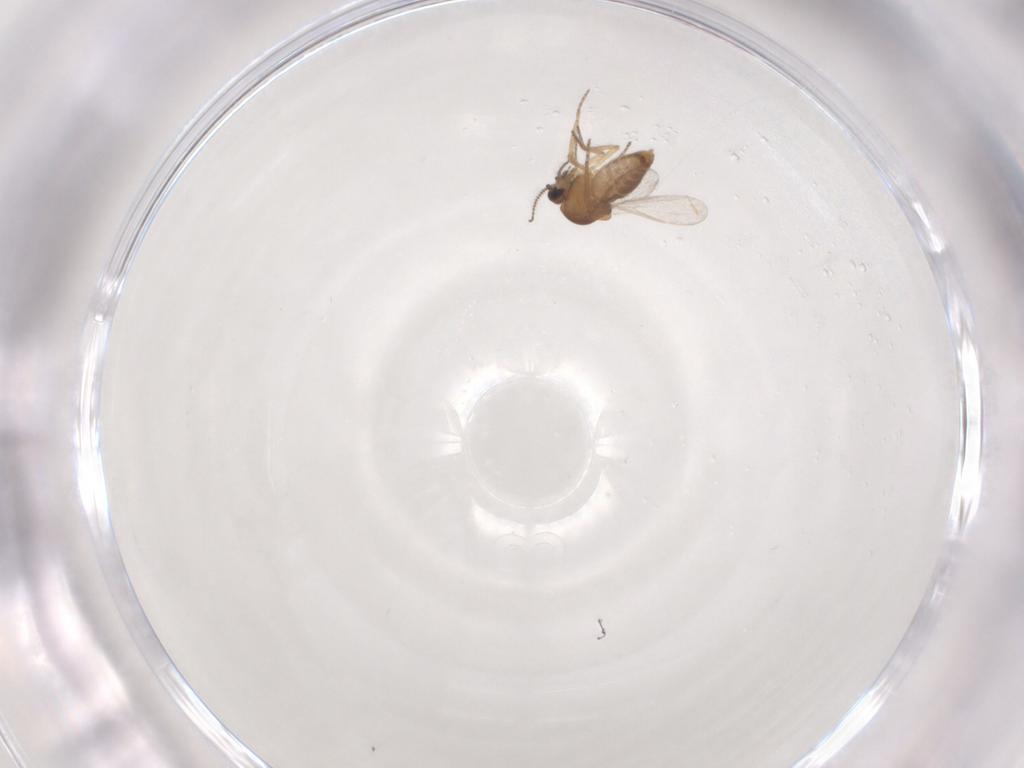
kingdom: Animalia
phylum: Arthropoda
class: Insecta
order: Diptera
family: Ceratopogonidae
